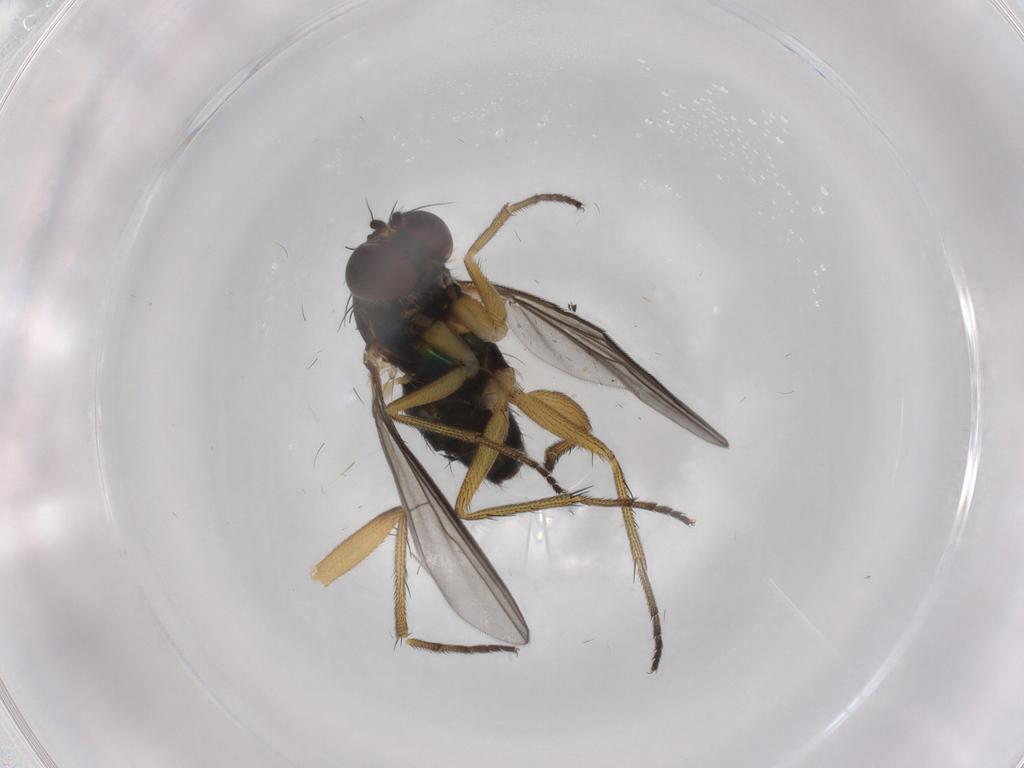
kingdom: Animalia
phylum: Arthropoda
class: Insecta
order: Diptera
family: Dolichopodidae
